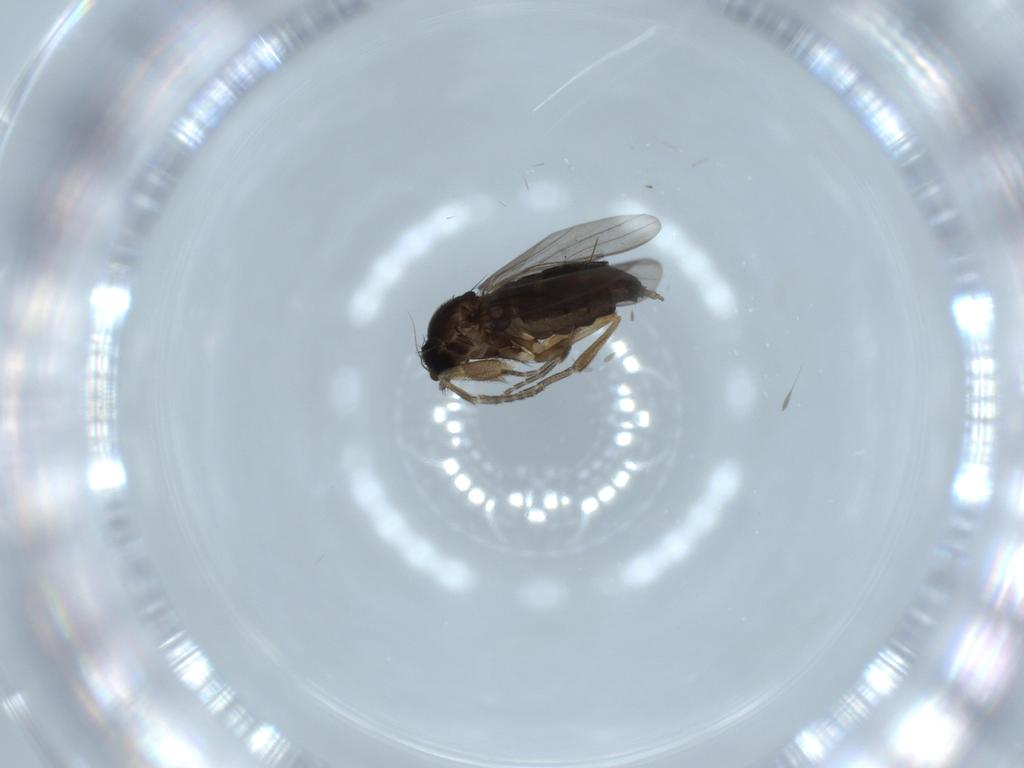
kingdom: Animalia
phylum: Arthropoda
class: Insecta
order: Diptera
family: Phoridae
